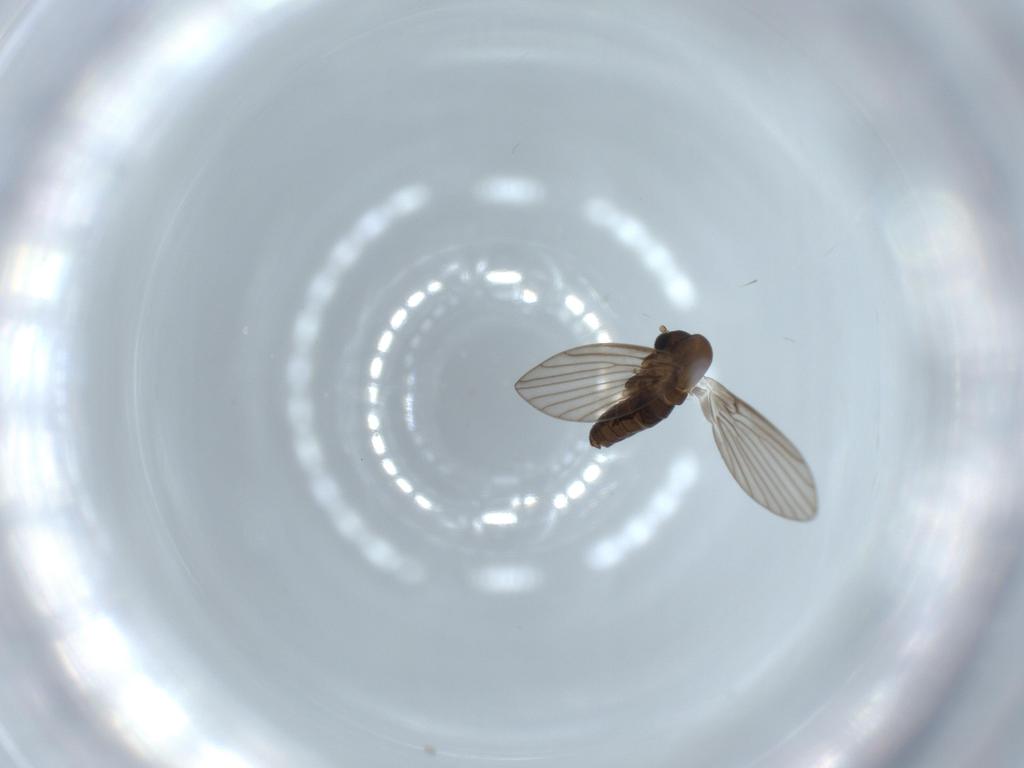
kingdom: Animalia
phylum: Arthropoda
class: Insecta
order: Diptera
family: Psychodidae
